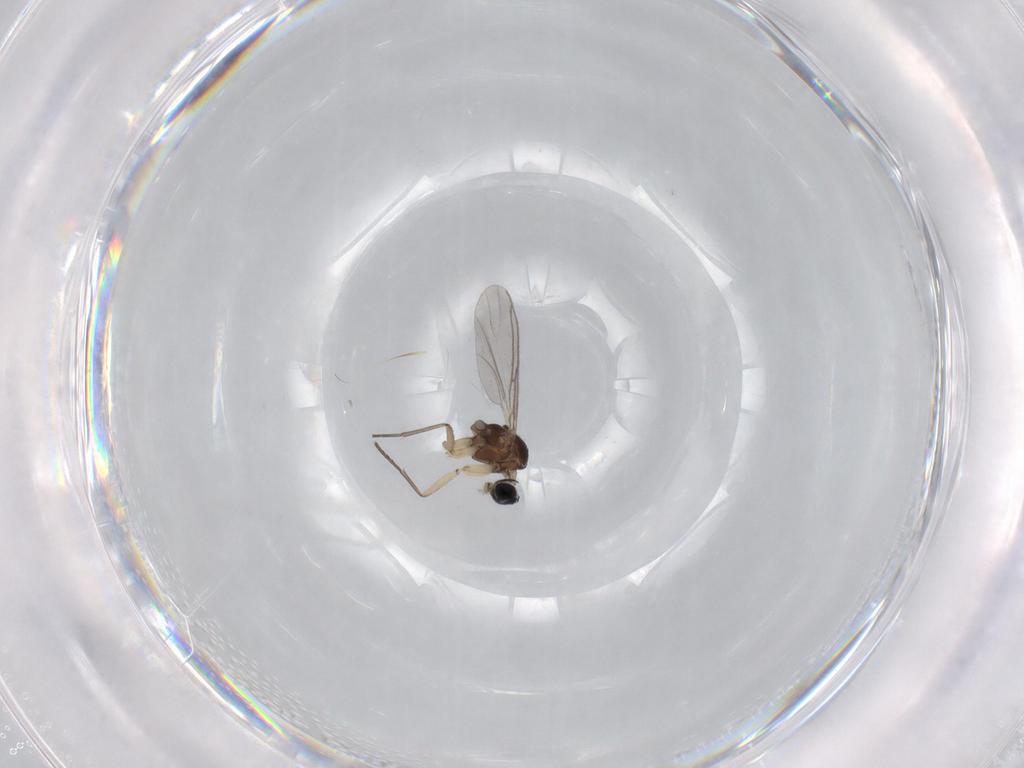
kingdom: Animalia
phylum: Arthropoda
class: Insecta
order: Diptera
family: Sciaridae
